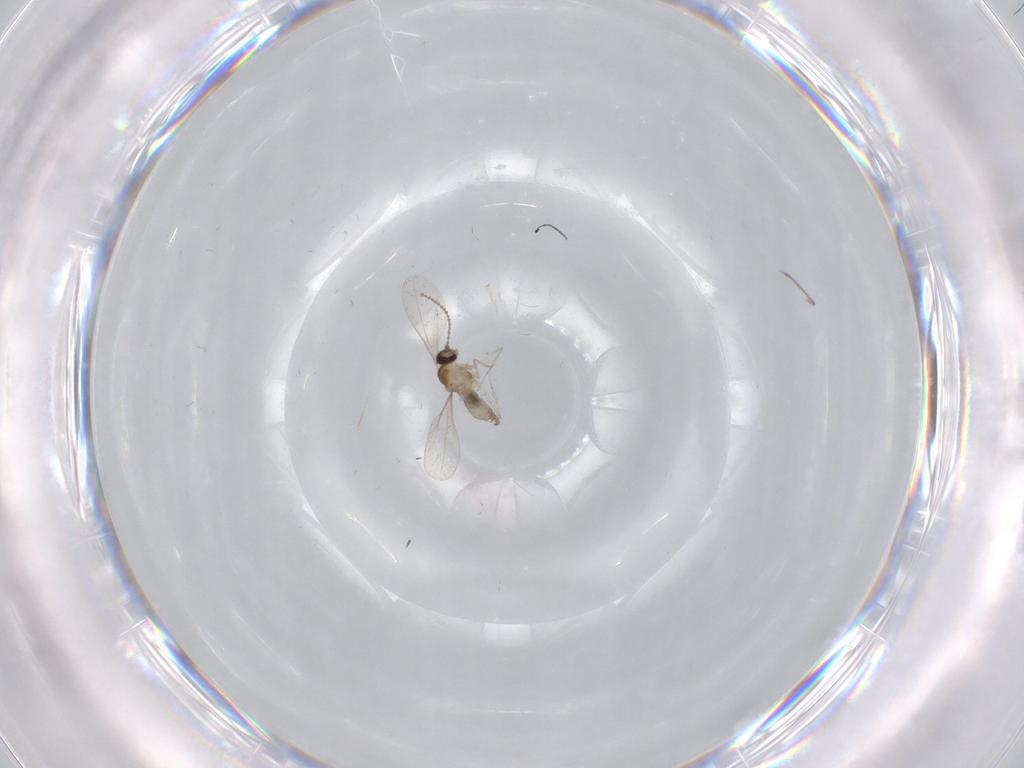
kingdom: Animalia
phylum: Arthropoda
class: Insecta
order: Diptera
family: Cecidomyiidae
